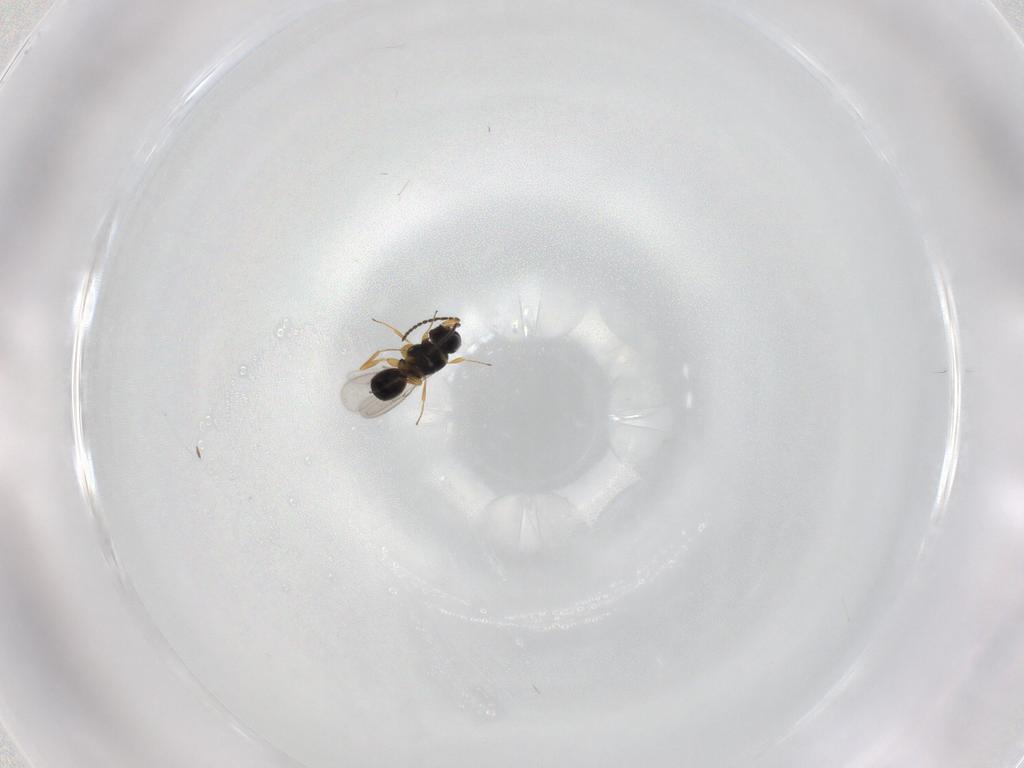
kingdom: Animalia
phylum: Arthropoda
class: Insecta
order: Hymenoptera
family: Scelionidae
